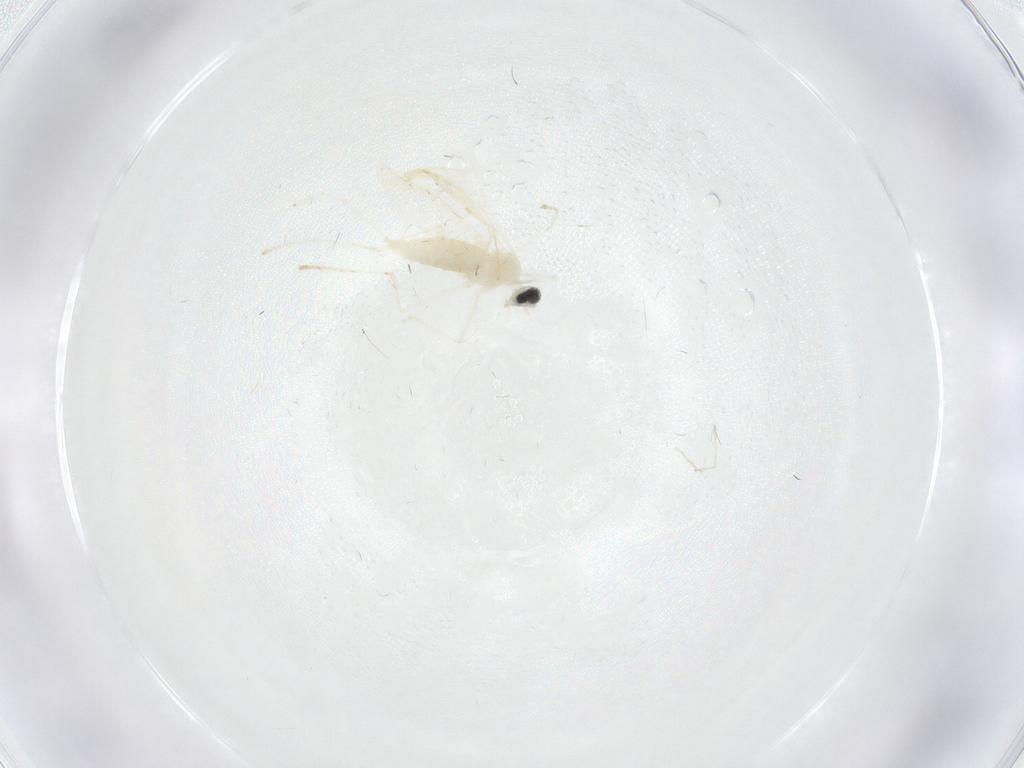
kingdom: Animalia
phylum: Arthropoda
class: Insecta
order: Diptera
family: Cecidomyiidae
